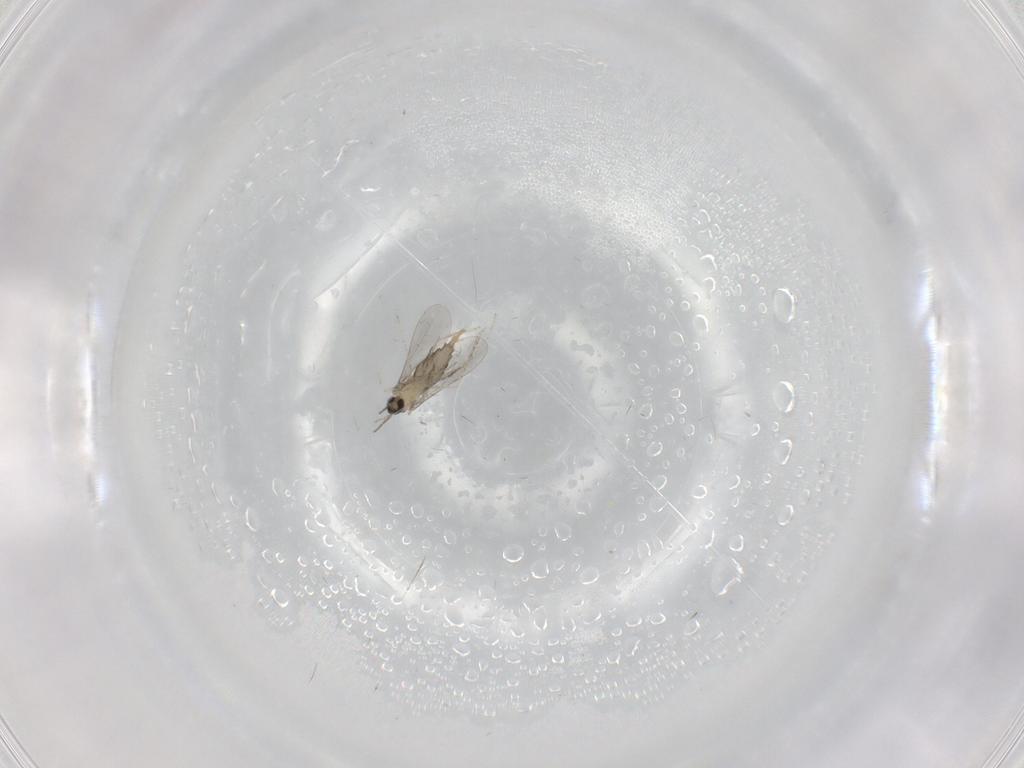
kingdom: Animalia
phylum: Arthropoda
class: Insecta
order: Diptera
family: Cecidomyiidae
